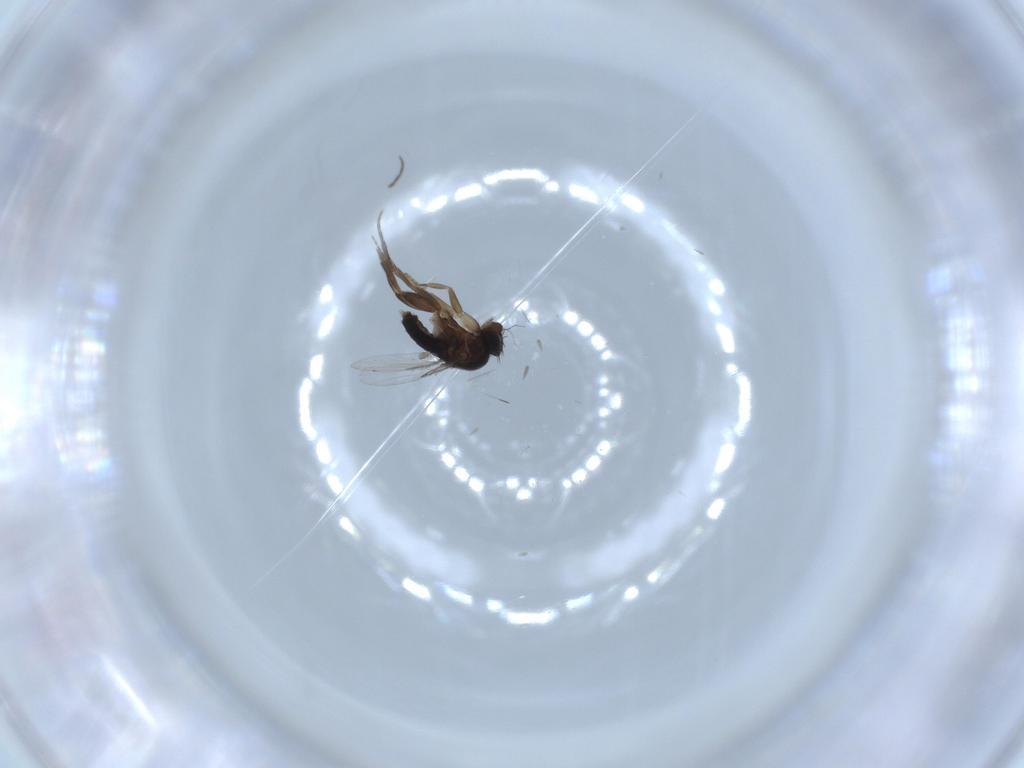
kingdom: Animalia
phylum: Arthropoda
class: Insecta
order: Diptera
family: Phoridae
